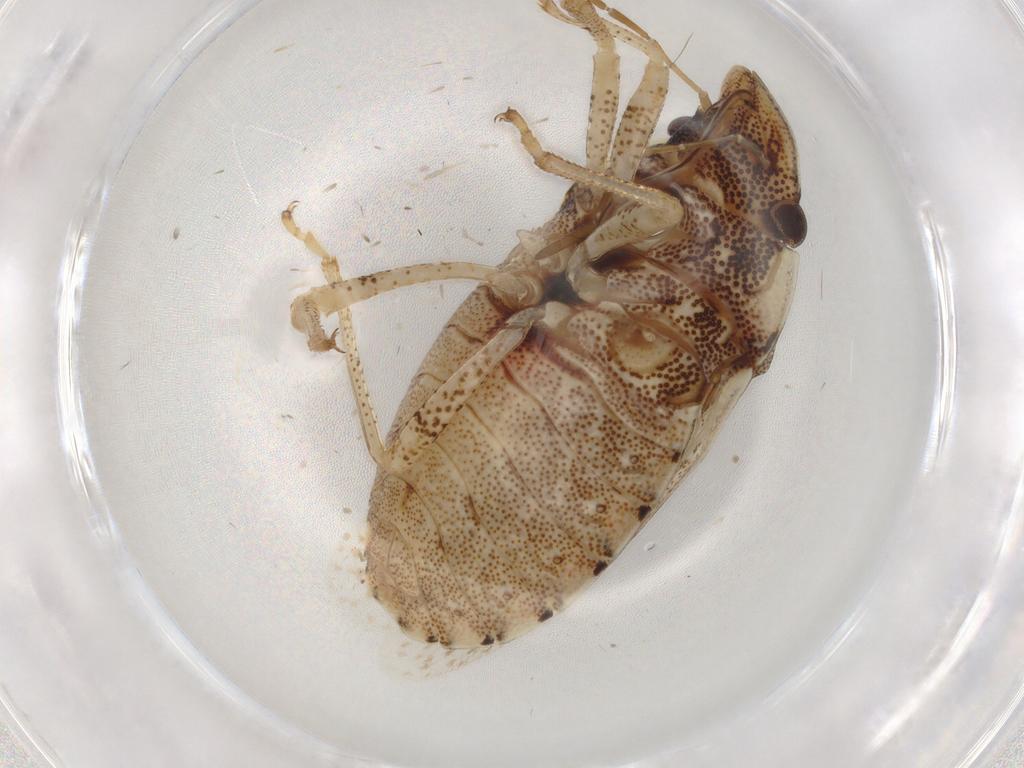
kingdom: Animalia
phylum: Arthropoda
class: Insecta
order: Hemiptera
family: Pentatomidae
